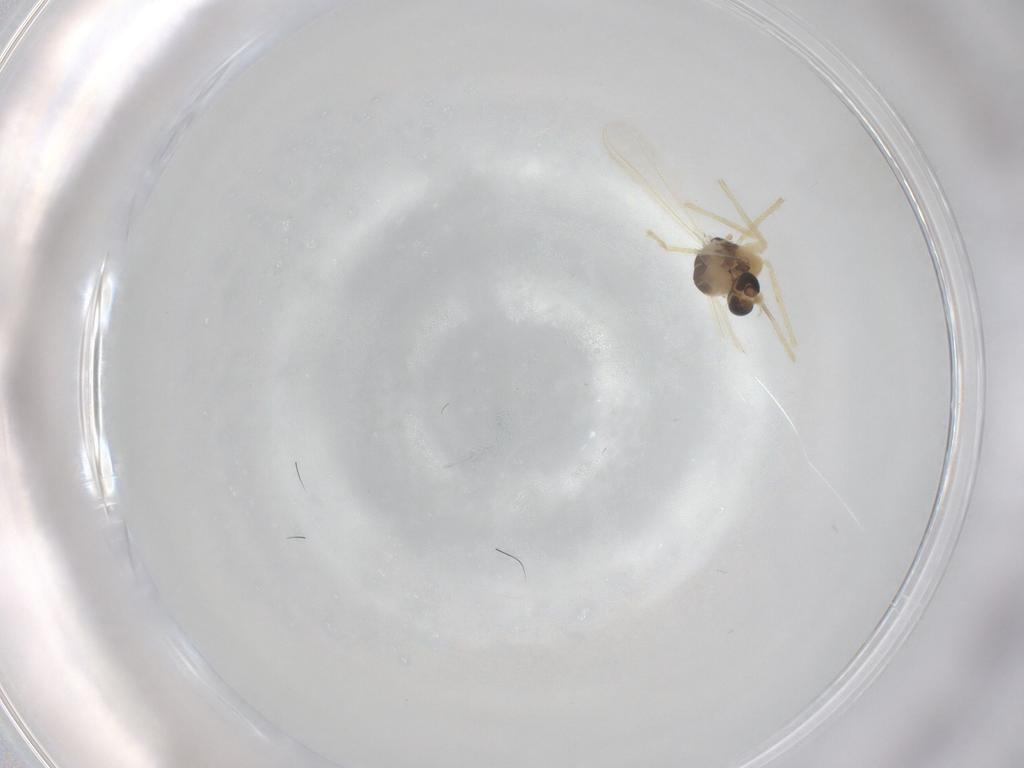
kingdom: Animalia
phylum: Arthropoda
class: Insecta
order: Diptera
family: Chironomidae
